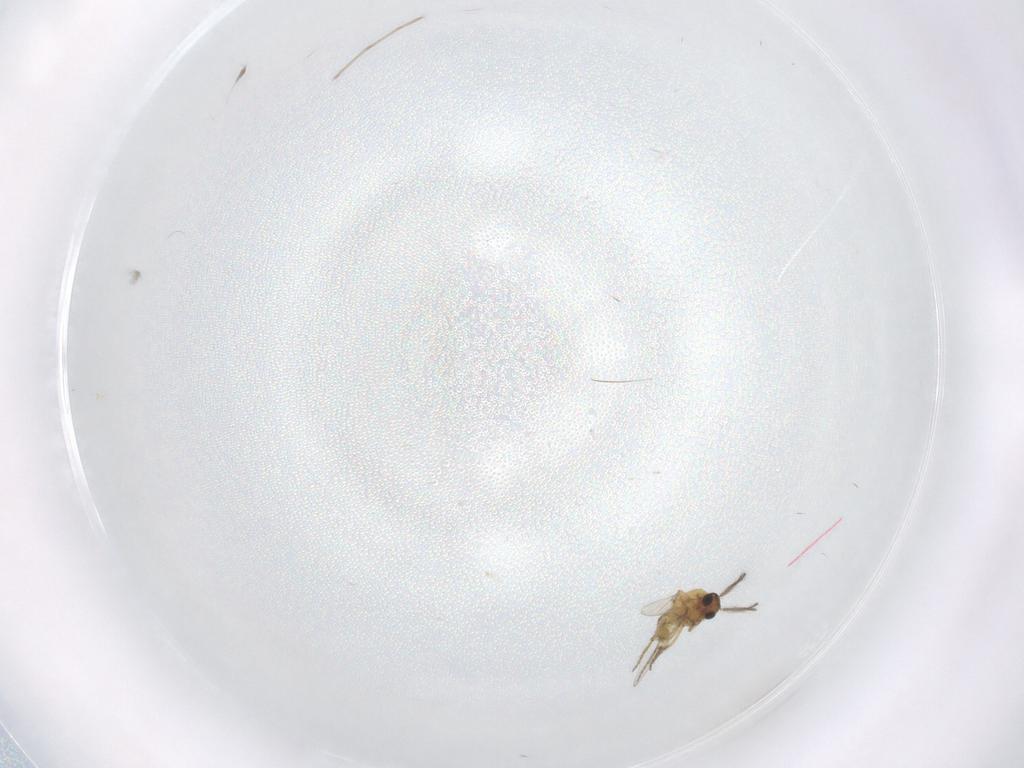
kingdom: Animalia
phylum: Arthropoda
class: Insecta
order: Diptera
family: Ceratopogonidae
